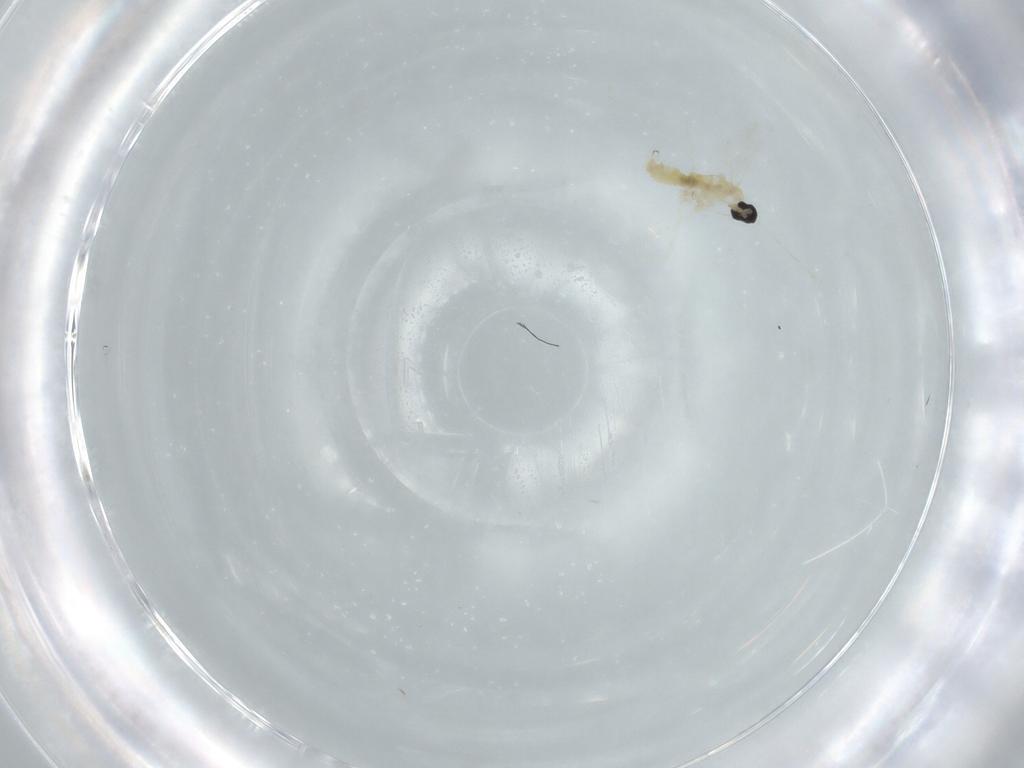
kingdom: Animalia
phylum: Arthropoda
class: Insecta
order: Diptera
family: Cecidomyiidae
